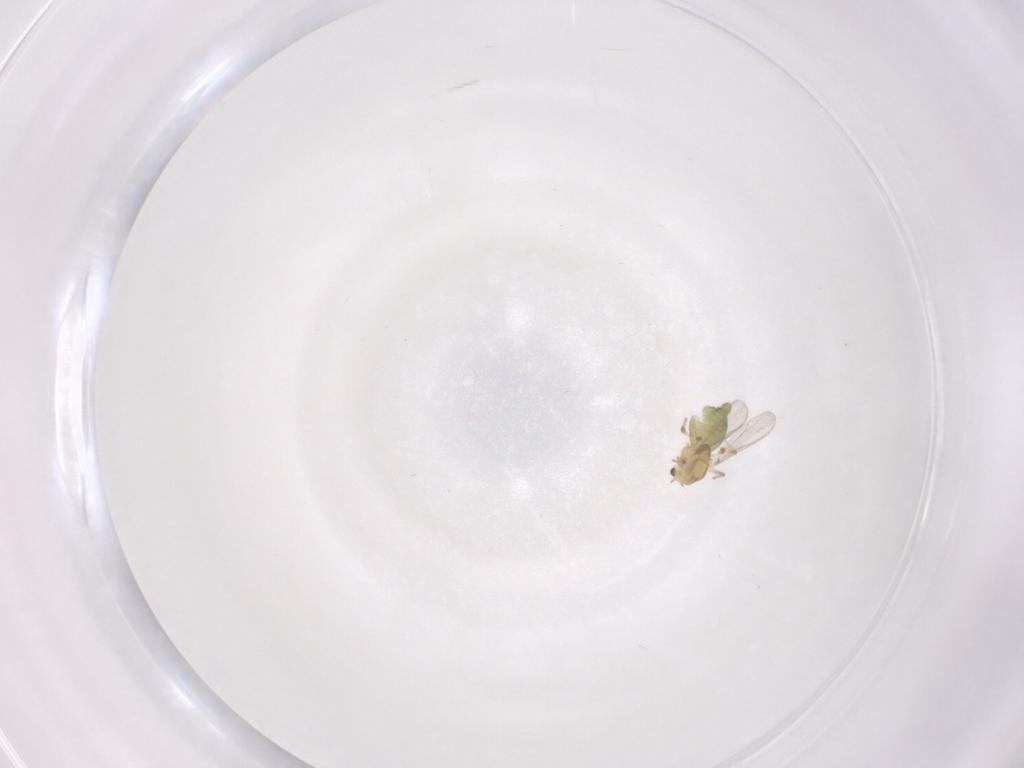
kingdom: Animalia
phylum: Arthropoda
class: Insecta
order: Diptera
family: Chironomidae
